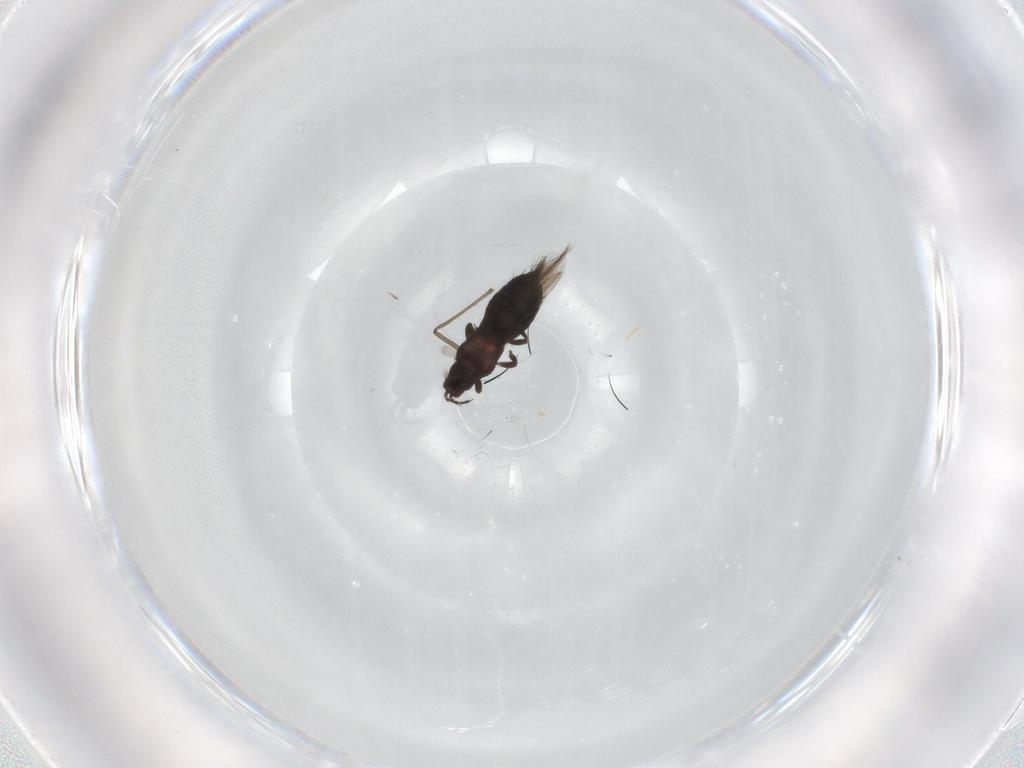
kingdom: Animalia
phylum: Arthropoda
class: Insecta
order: Thysanoptera
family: Thripidae
